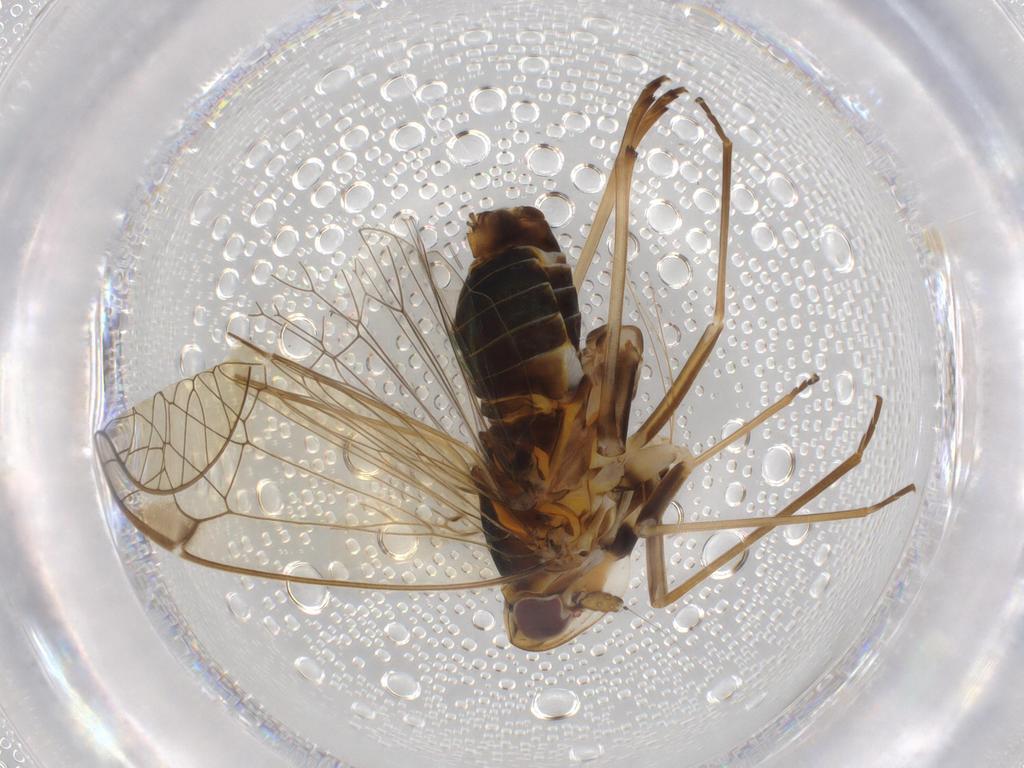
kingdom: Animalia
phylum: Arthropoda
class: Insecta
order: Hemiptera
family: Kinnaridae
